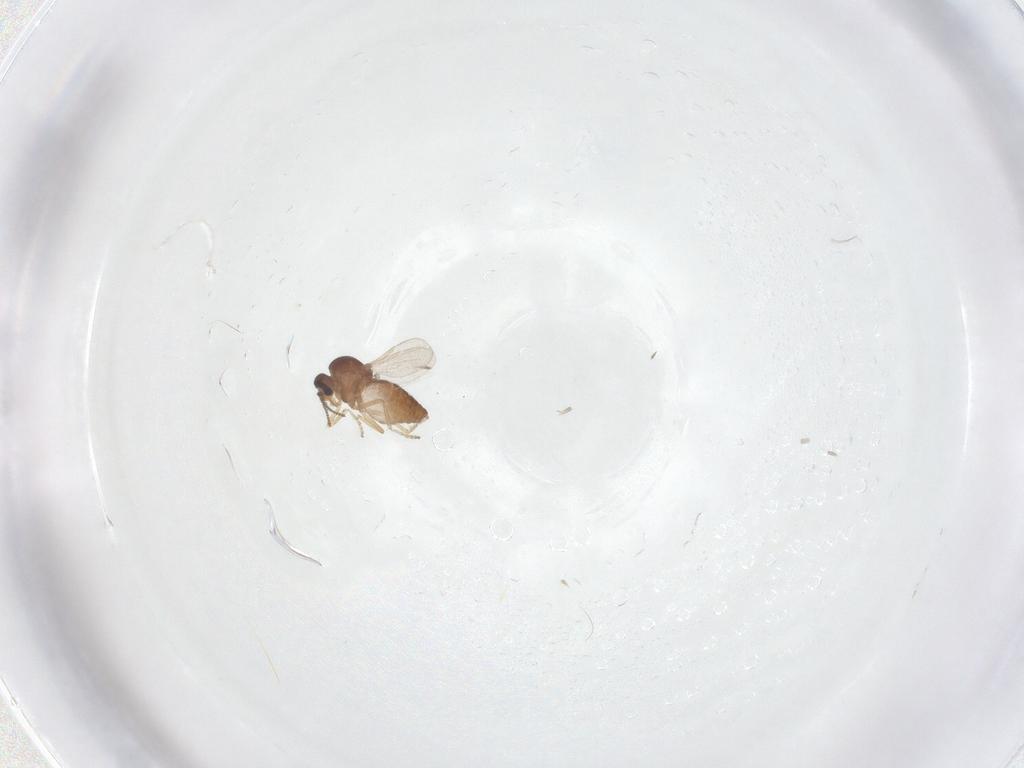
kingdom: Animalia
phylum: Arthropoda
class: Insecta
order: Diptera
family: Ceratopogonidae
